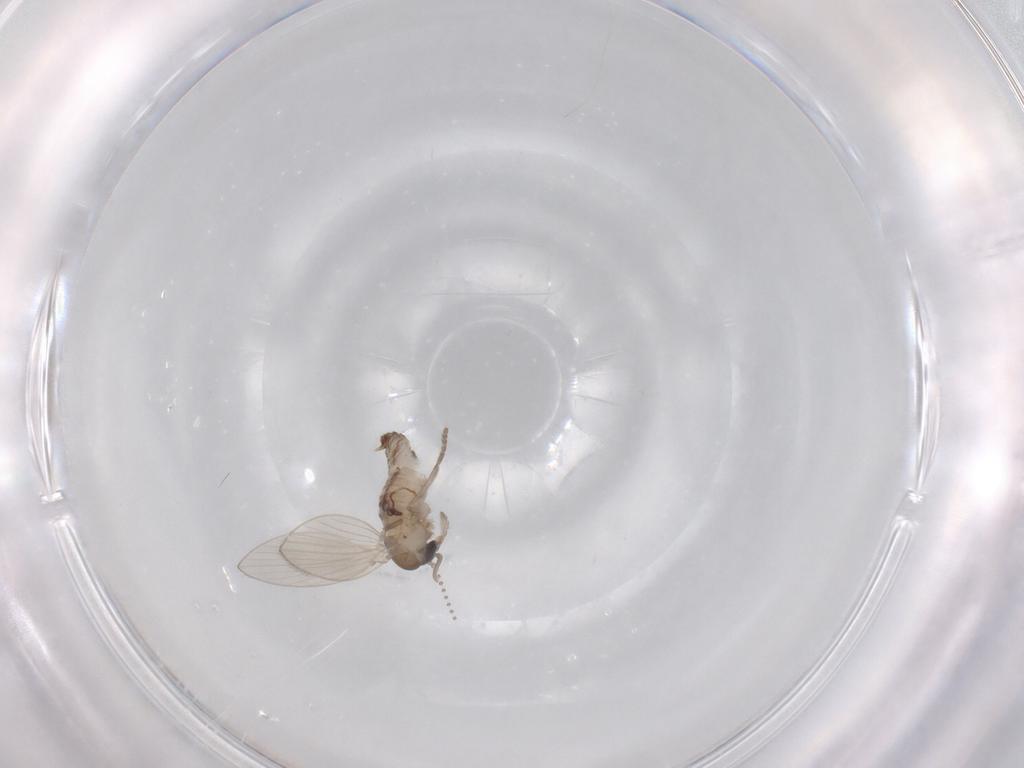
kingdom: Animalia
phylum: Arthropoda
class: Insecta
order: Diptera
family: Psychodidae
